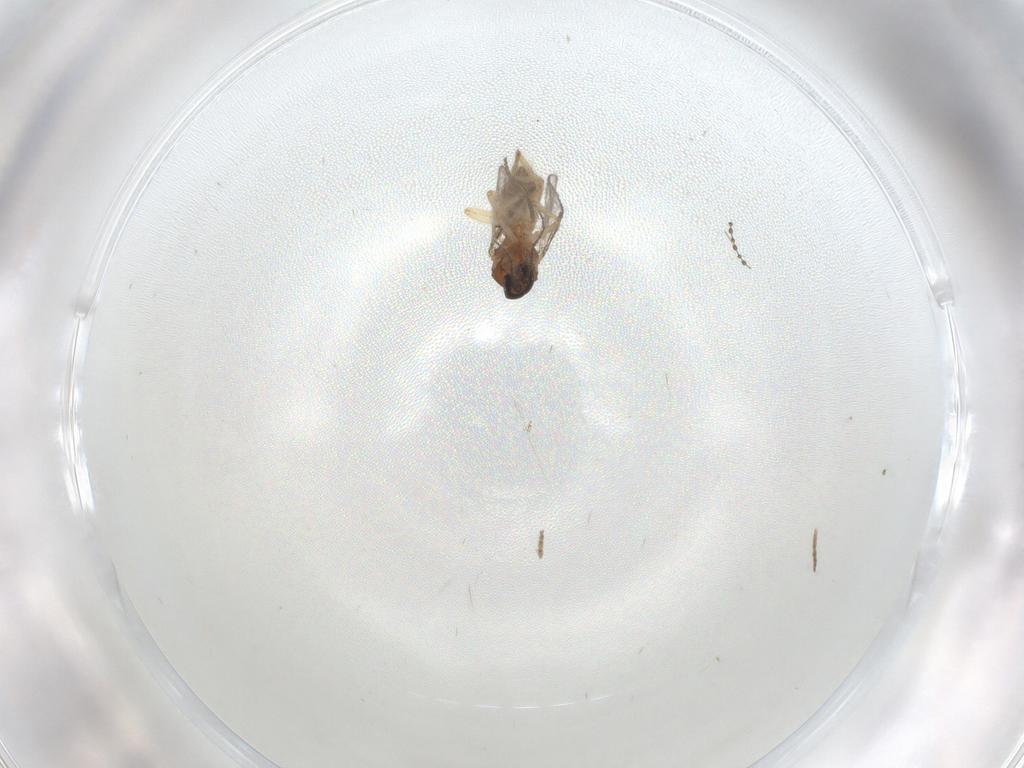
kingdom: Animalia
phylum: Arthropoda
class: Insecta
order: Diptera
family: Ceratopogonidae
